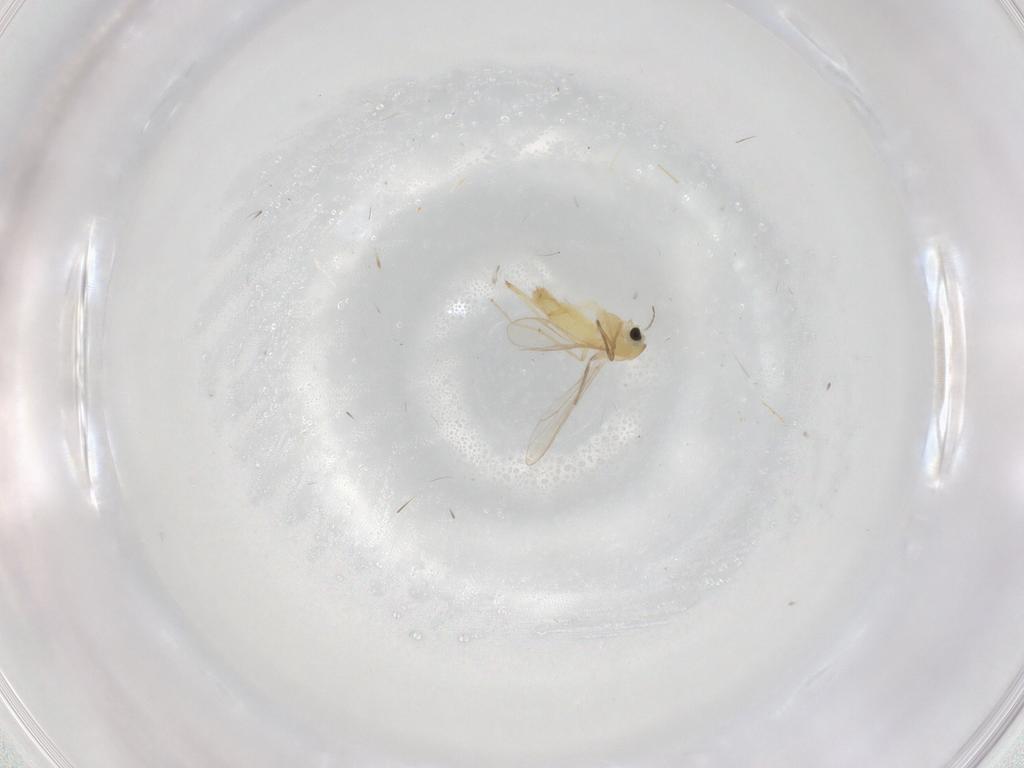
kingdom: Animalia
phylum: Arthropoda
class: Insecta
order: Diptera
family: Chironomidae
